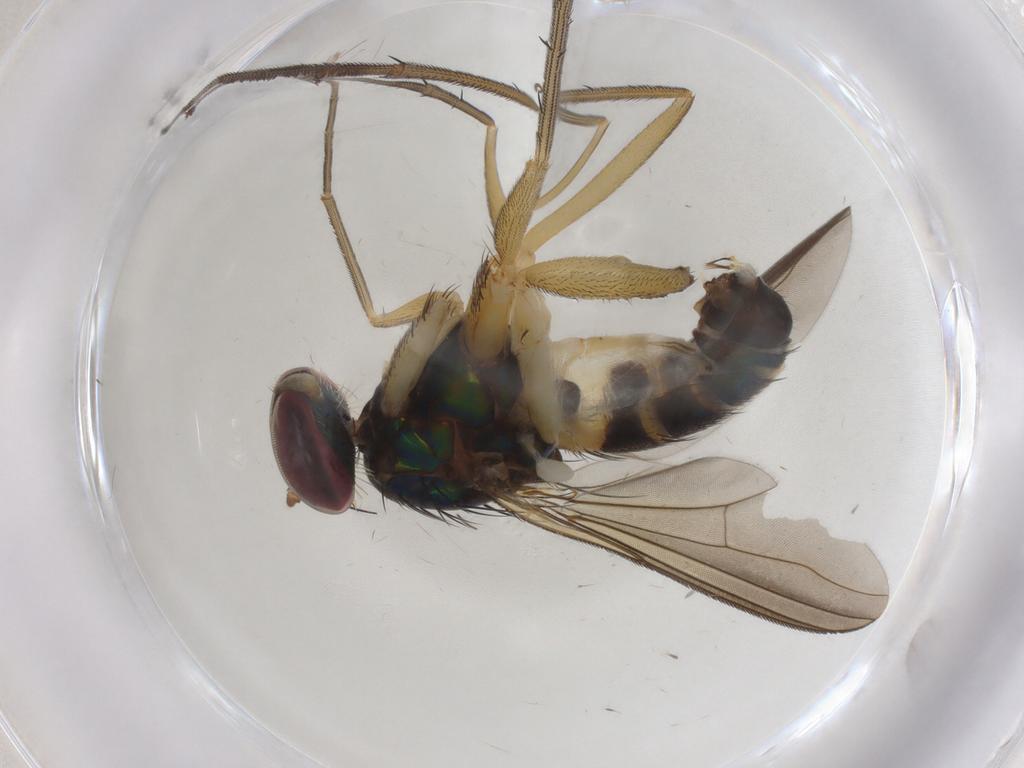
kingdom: Animalia
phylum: Arthropoda
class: Insecta
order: Diptera
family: Dolichopodidae
